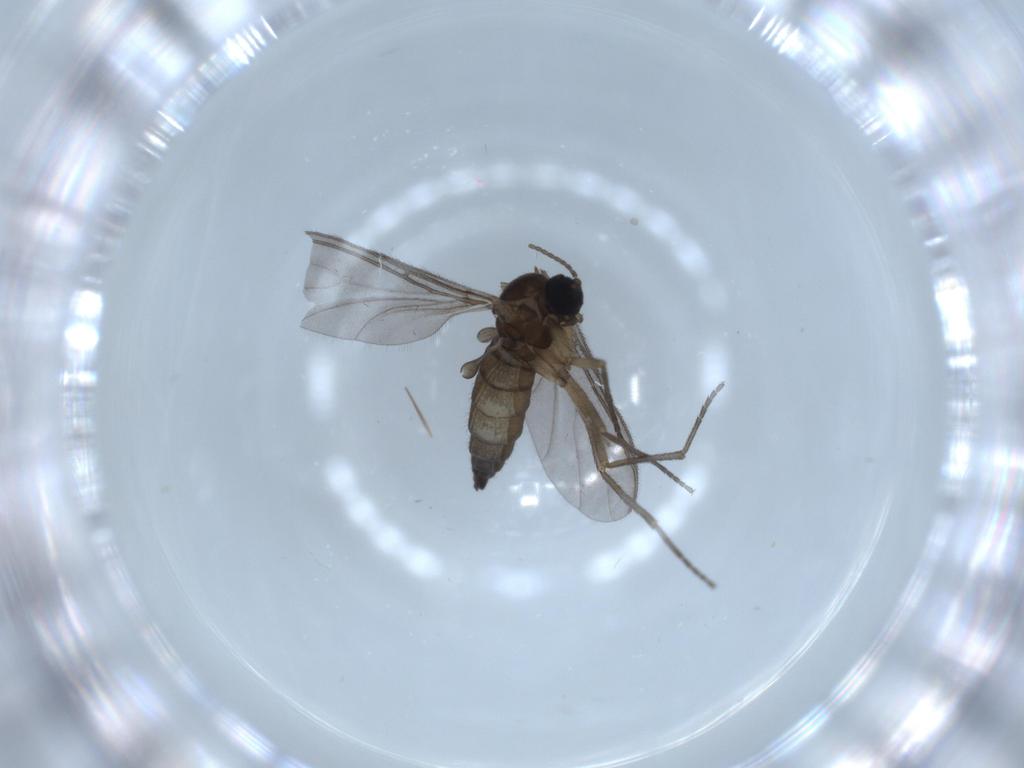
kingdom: Animalia
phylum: Arthropoda
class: Insecta
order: Diptera
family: Sciaridae
